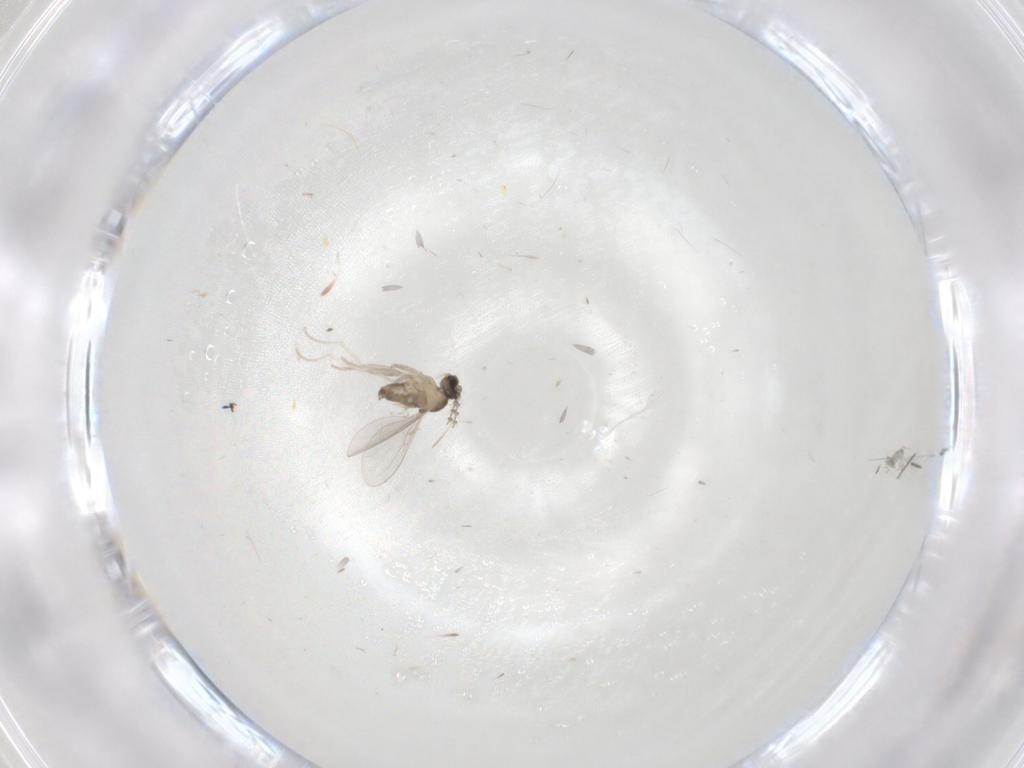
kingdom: Animalia
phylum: Arthropoda
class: Insecta
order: Diptera
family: Cecidomyiidae
